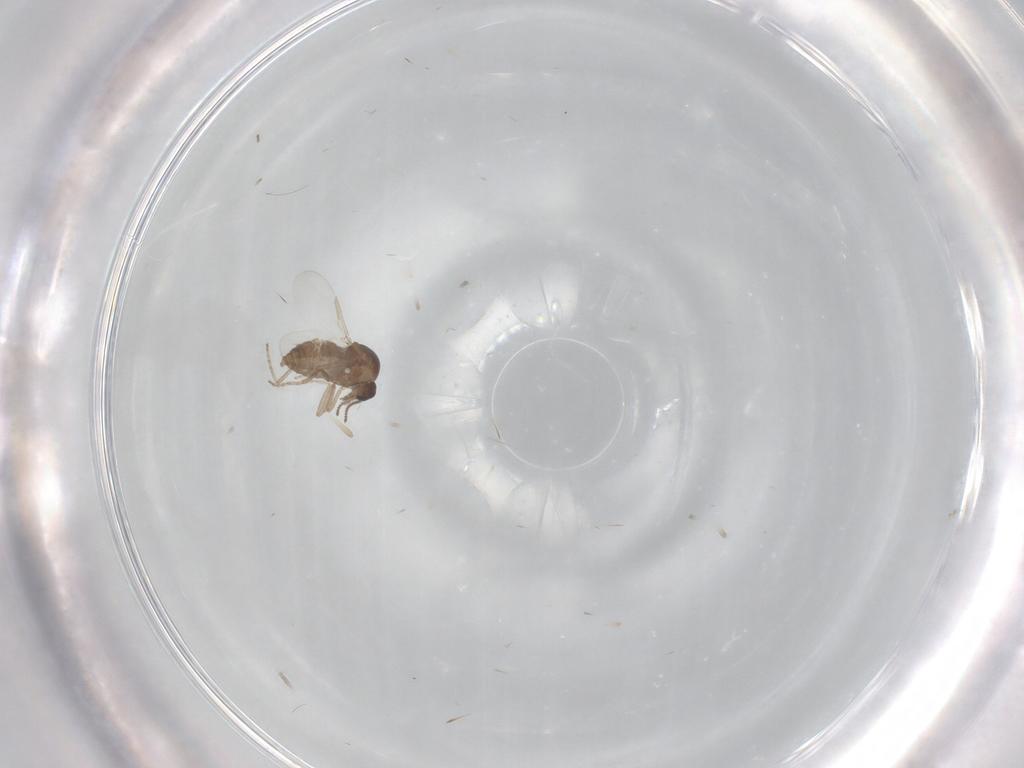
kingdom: Animalia
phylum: Arthropoda
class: Insecta
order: Diptera
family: Ceratopogonidae
